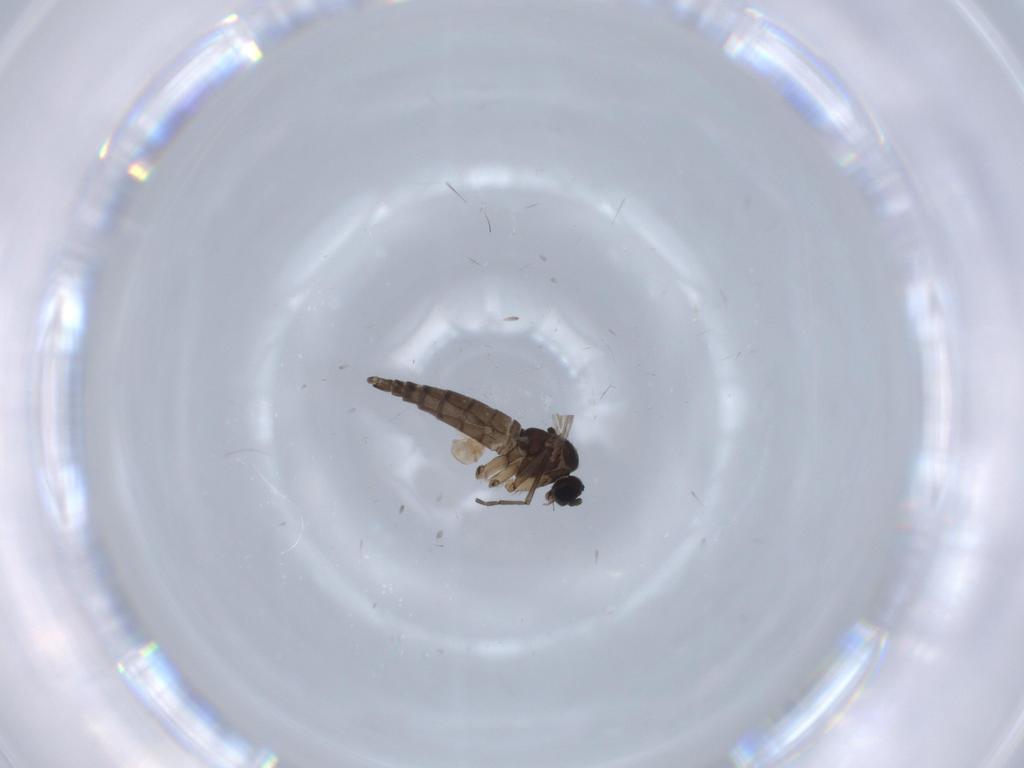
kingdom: Animalia
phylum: Arthropoda
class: Insecta
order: Diptera
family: Sciaridae
